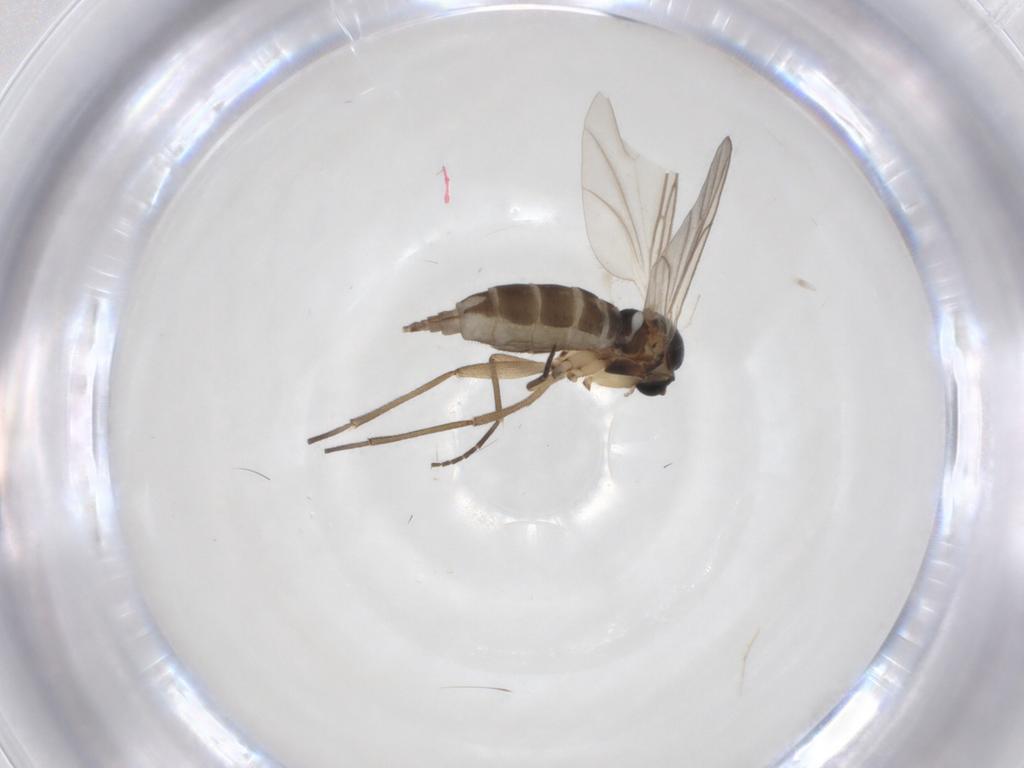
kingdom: Animalia
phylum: Arthropoda
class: Insecta
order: Diptera
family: Chironomidae
